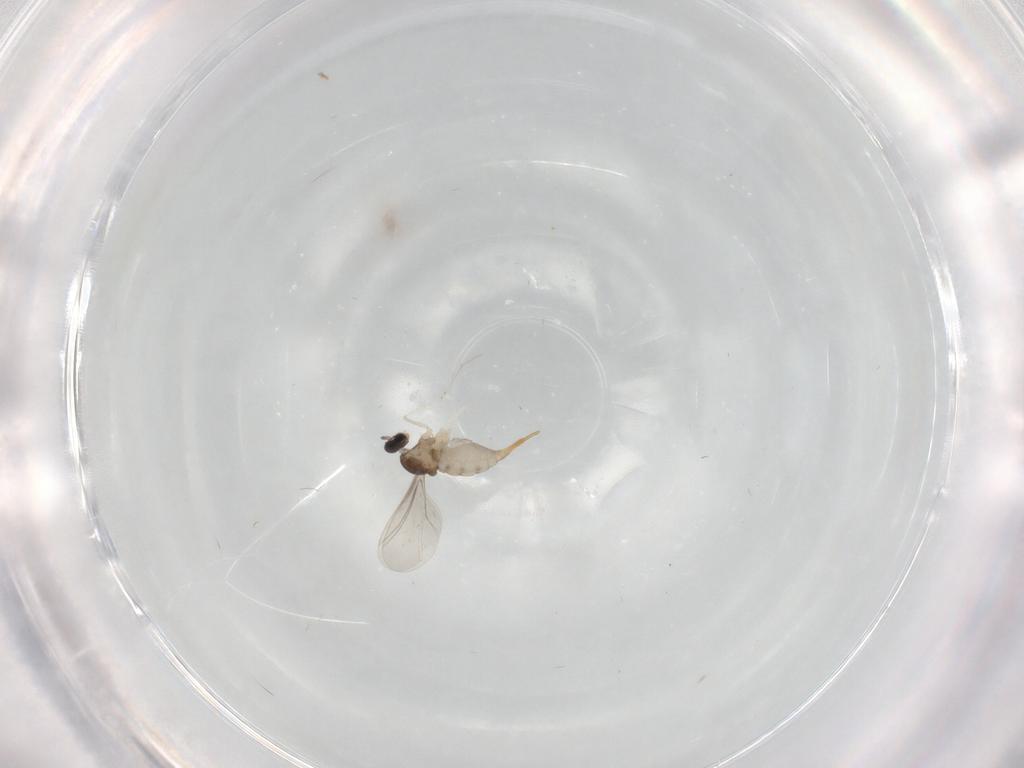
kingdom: Animalia
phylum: Arthropoda
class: Insecta
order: Diptera
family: Cecidomyiidae
